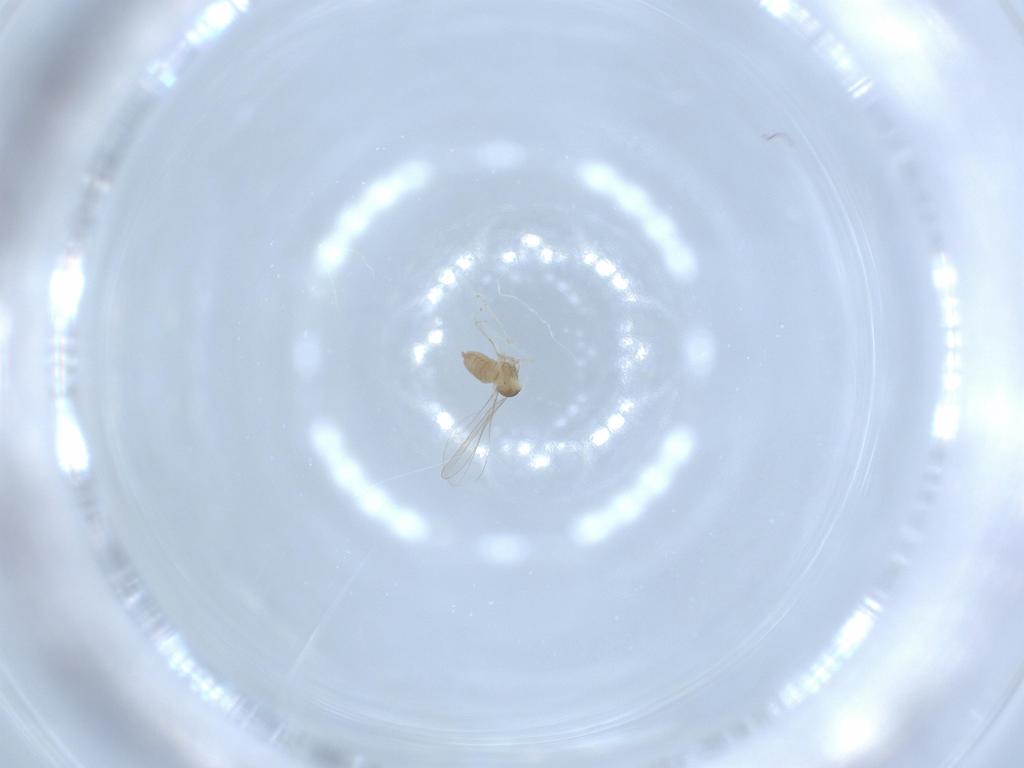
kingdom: Animalia
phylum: Arthropoda
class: Insecta
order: Diptera
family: Cecidomyiidae
